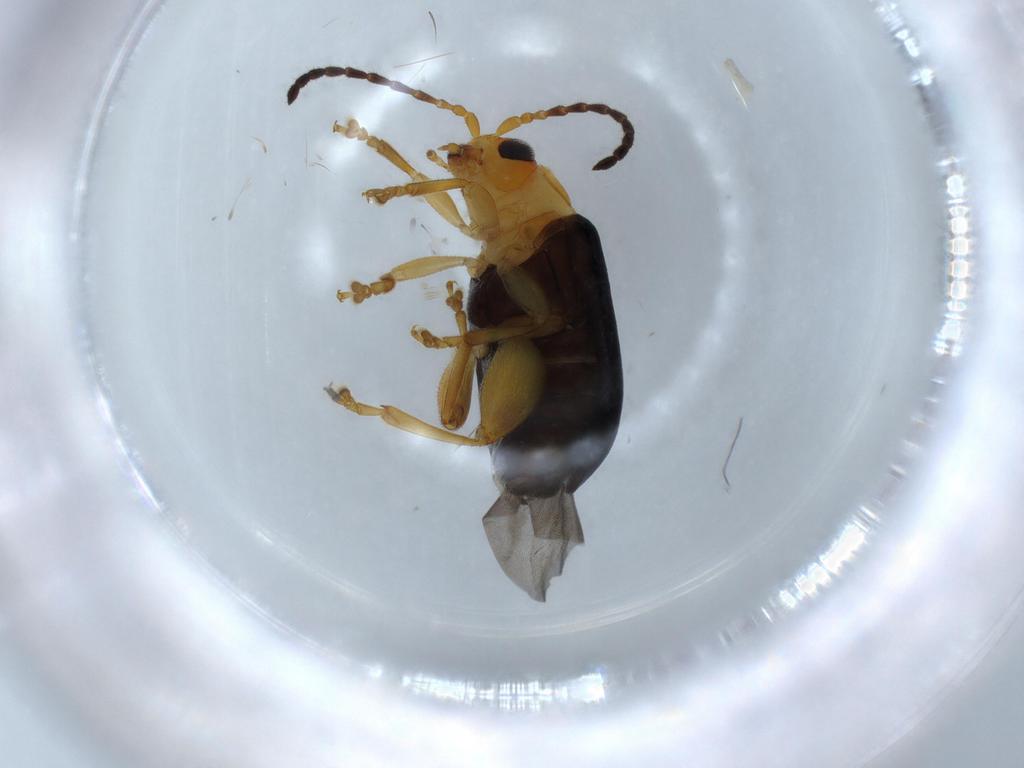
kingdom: Animalia
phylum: Arthropoda
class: Insecta
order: Coleoptera
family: Chrysomelidae
